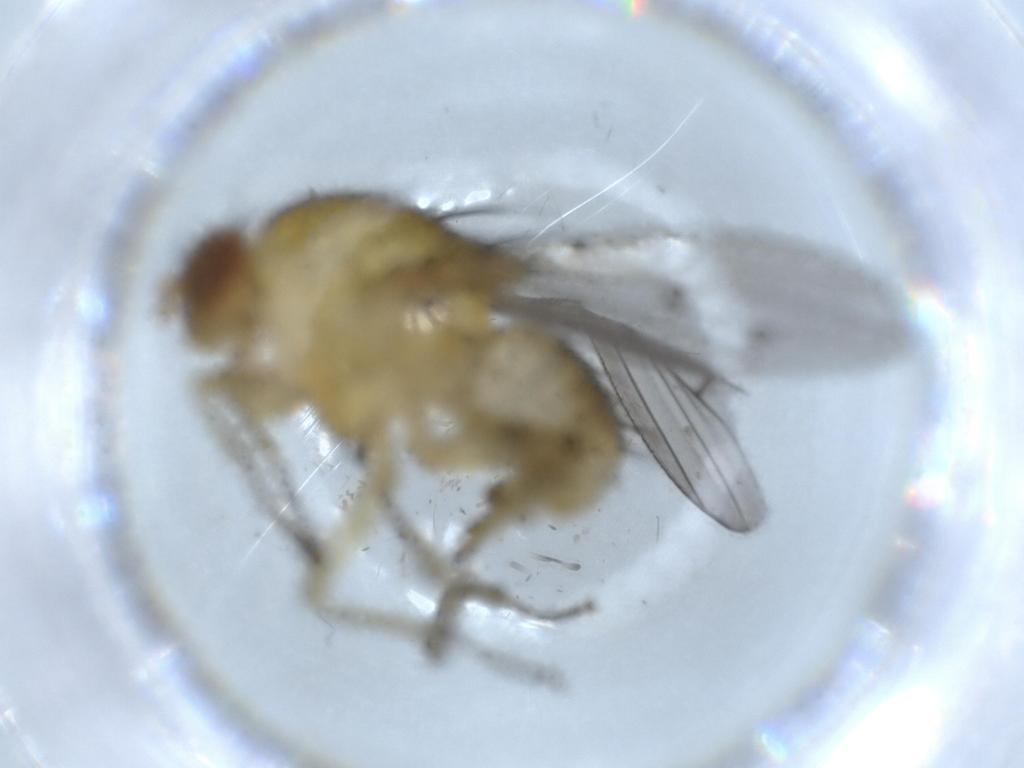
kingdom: Animalia
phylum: Arthropoda
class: Insecta
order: Diptera
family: Cecidomyiidae
